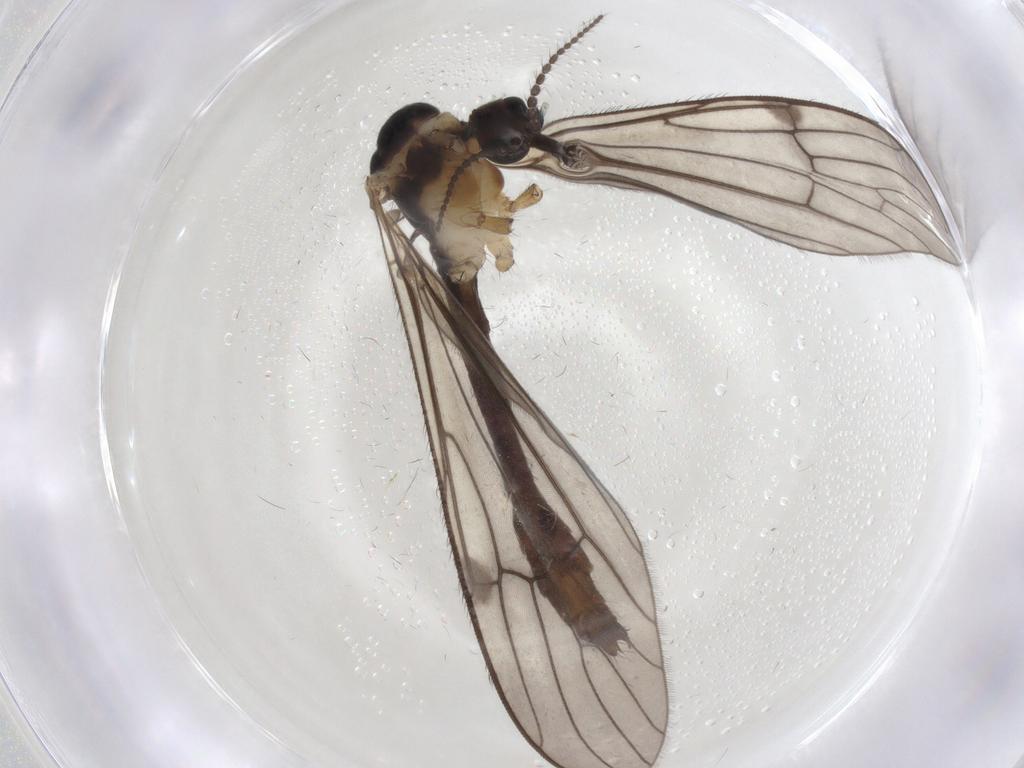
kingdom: Animalia
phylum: Arthropoda
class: Insecta
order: Diptera
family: Limoniidae
